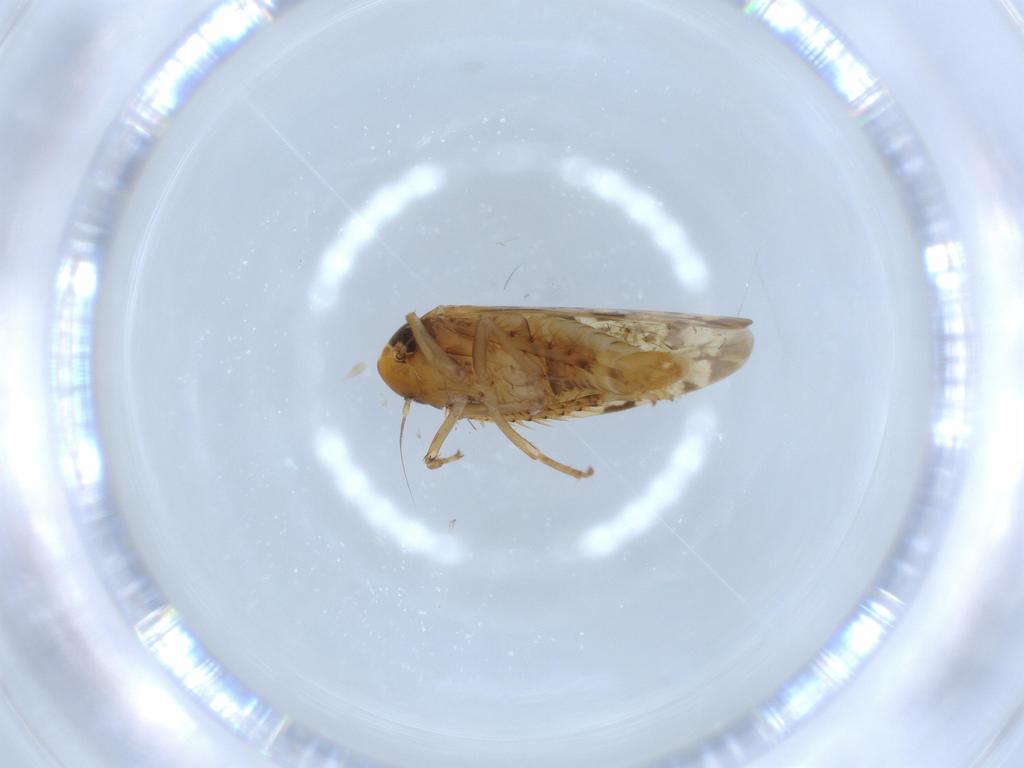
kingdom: Animalia
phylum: Arthropoda
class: Insecta
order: Hemiptera
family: Cicadellidae
